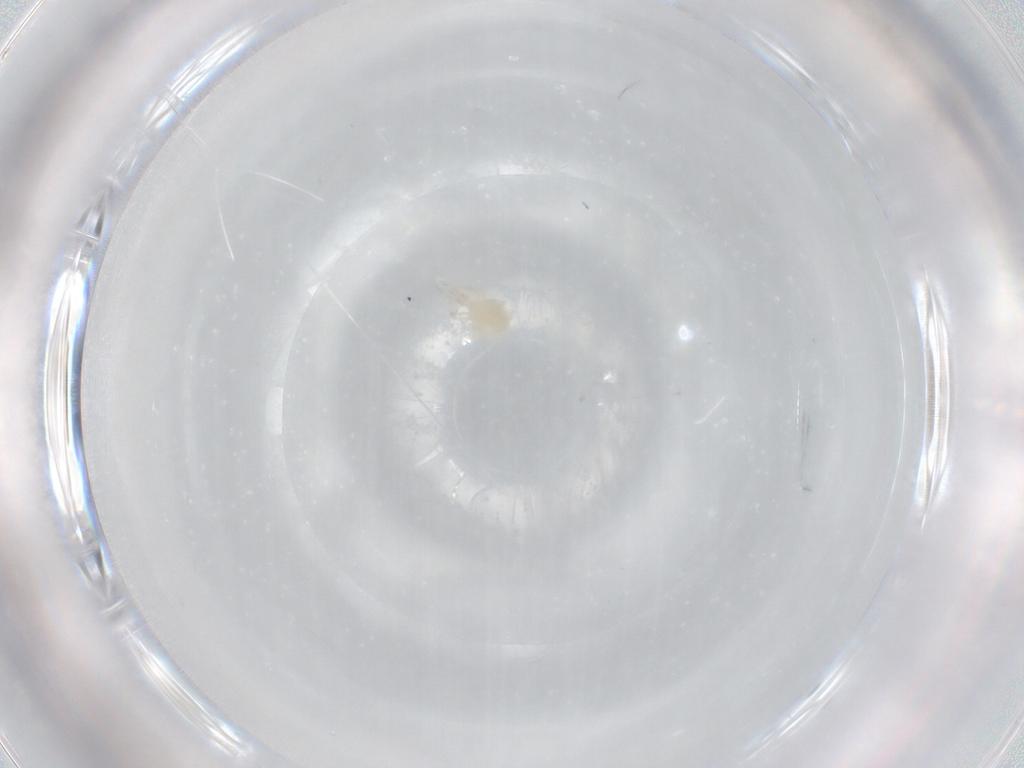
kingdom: Animalia
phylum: Arthropoda
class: Arachnida
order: Trombidiformes
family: Cunaxidae
